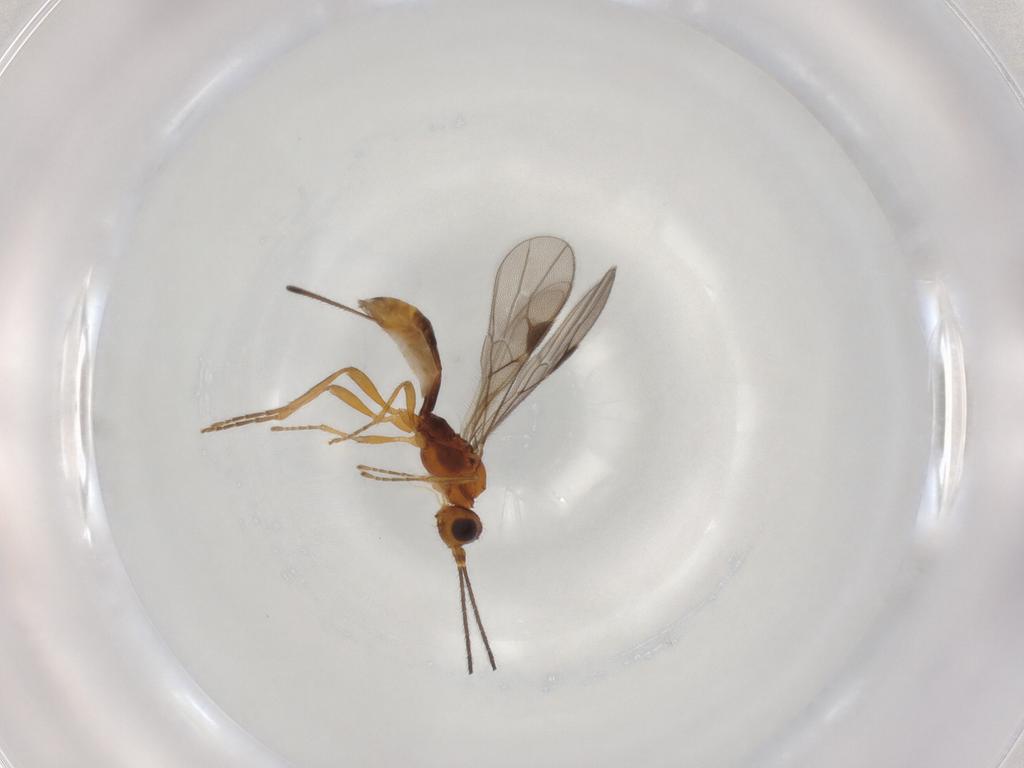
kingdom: Animalia
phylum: Arthropoda
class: Insecta
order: Hymenoptera
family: Braconidae
